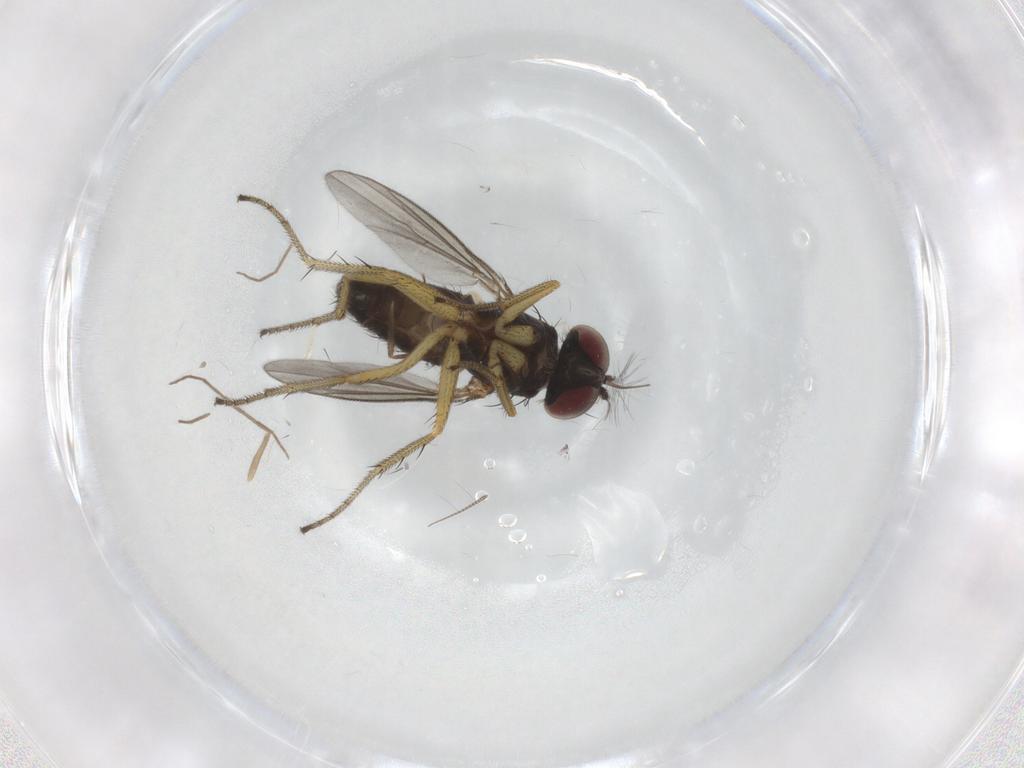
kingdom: Animalia
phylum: Arthropoda
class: Insecta
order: Diptera
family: Chironomidae
